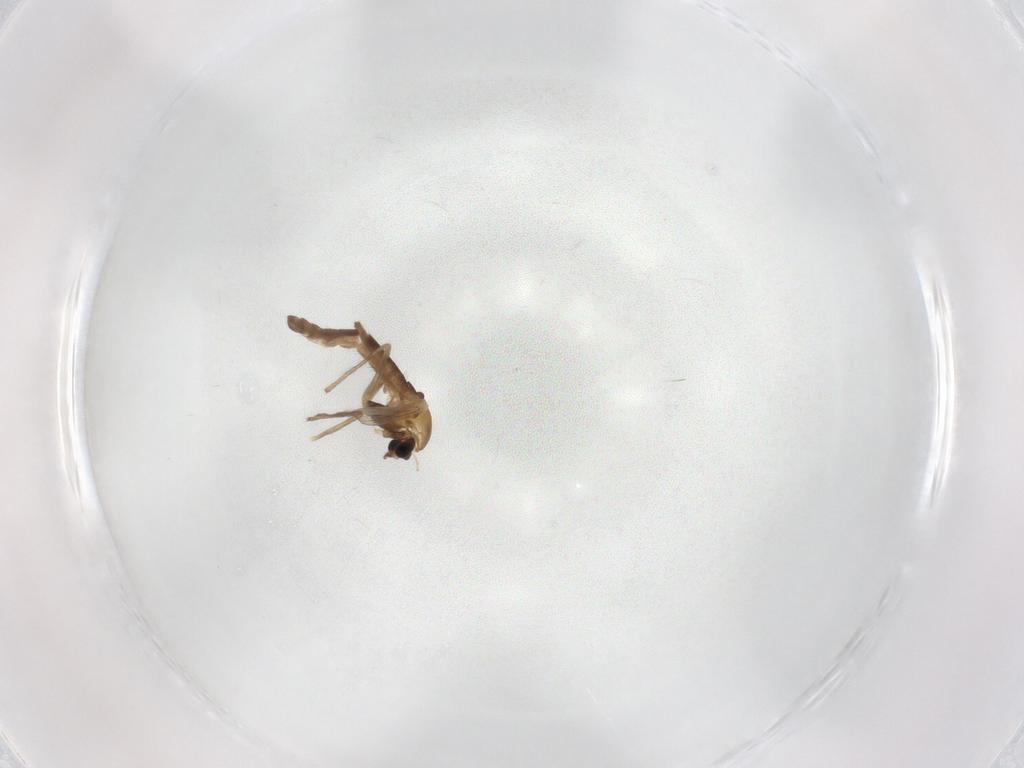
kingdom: Animalia
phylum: Arthropoda
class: Insecta
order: Diptera
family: Chironomidae
